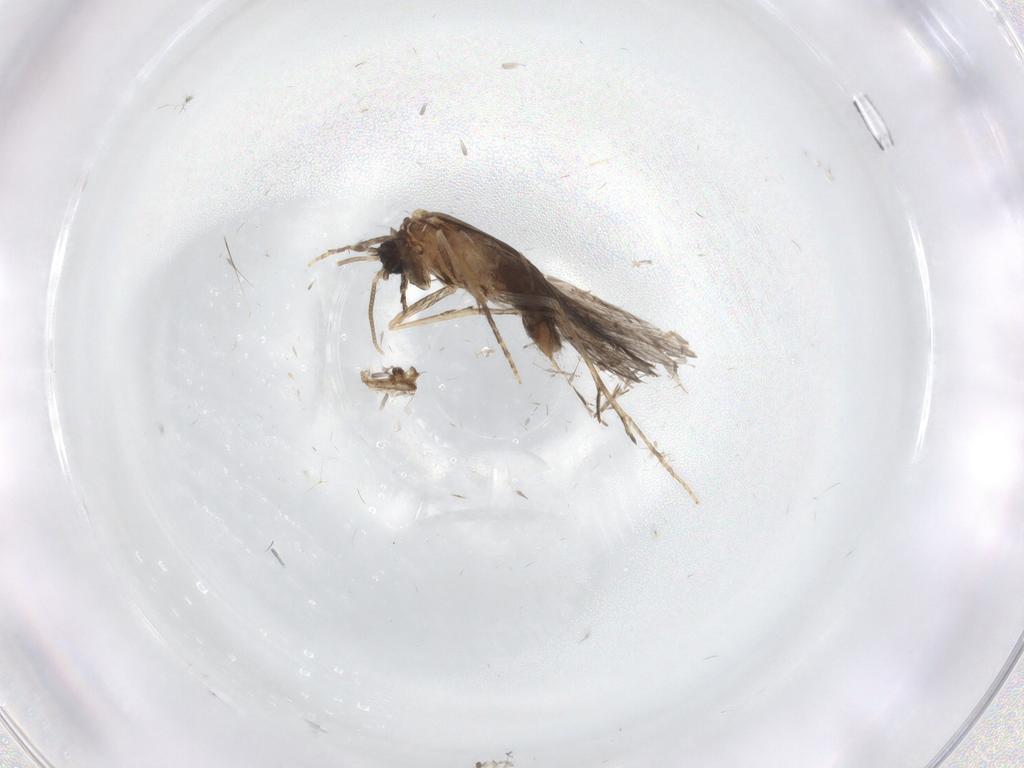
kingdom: Animalia
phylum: Arthropoda
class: Insecta
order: Trichoptera
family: Hydroptilidae
